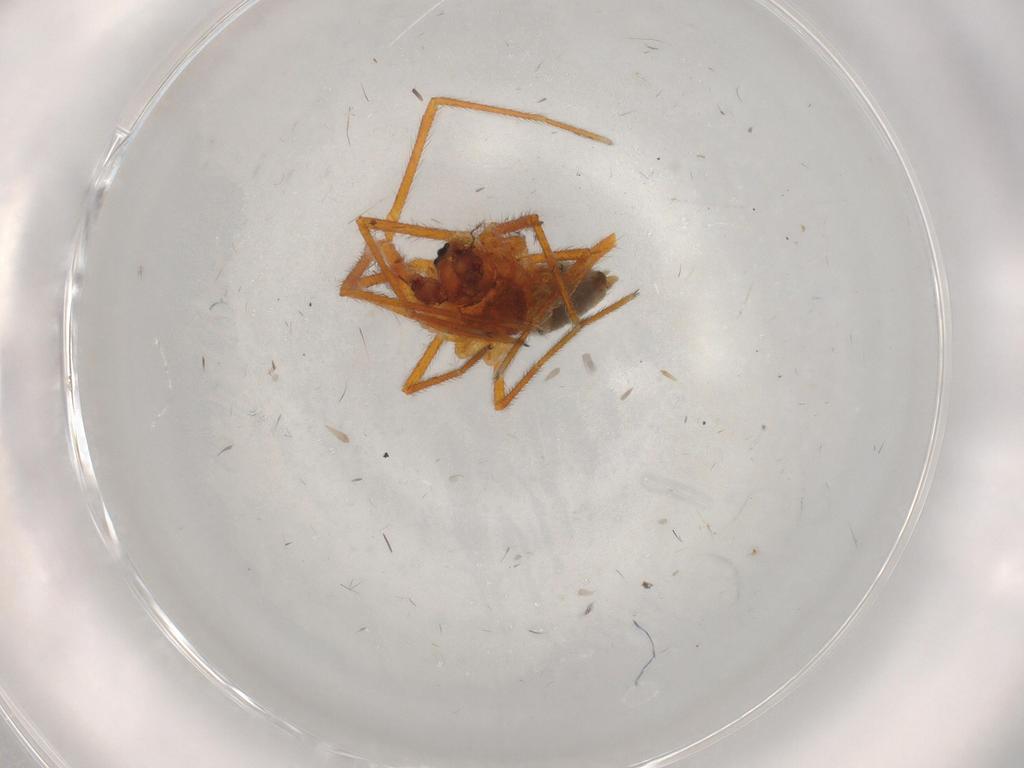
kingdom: Animalia
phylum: Arthropoda
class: Arachnida
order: Araneae
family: Linyphiidae
